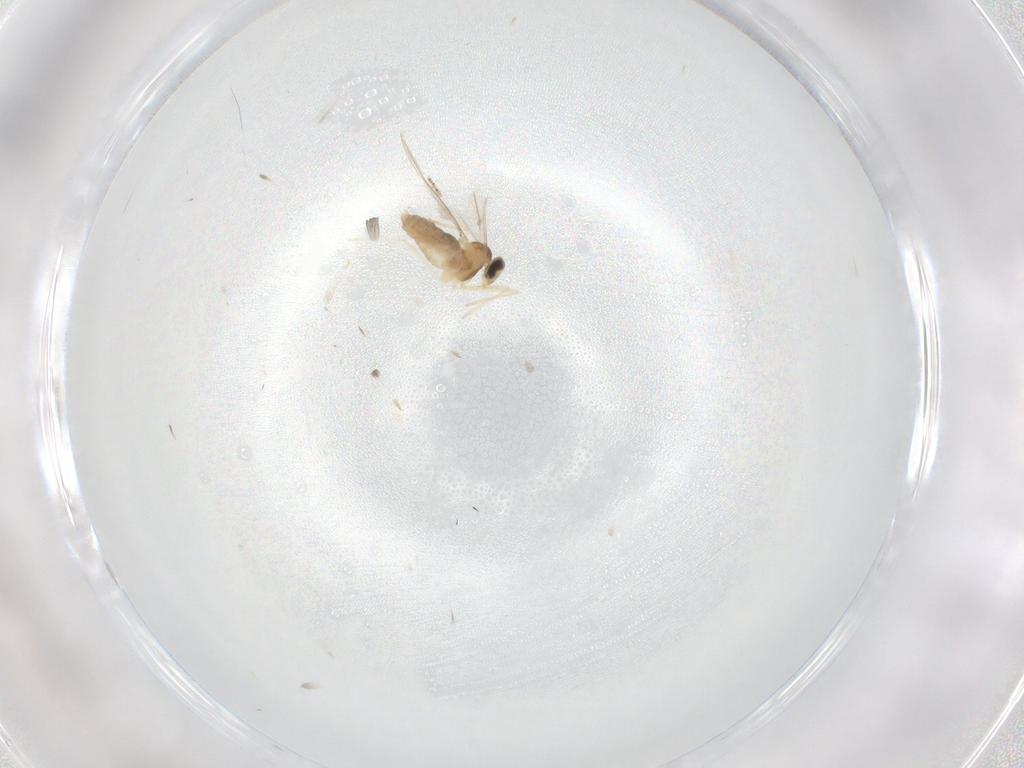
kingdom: Animalia
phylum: Arthropoda
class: Insecta
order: Diptera
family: Cecidomyiidae
